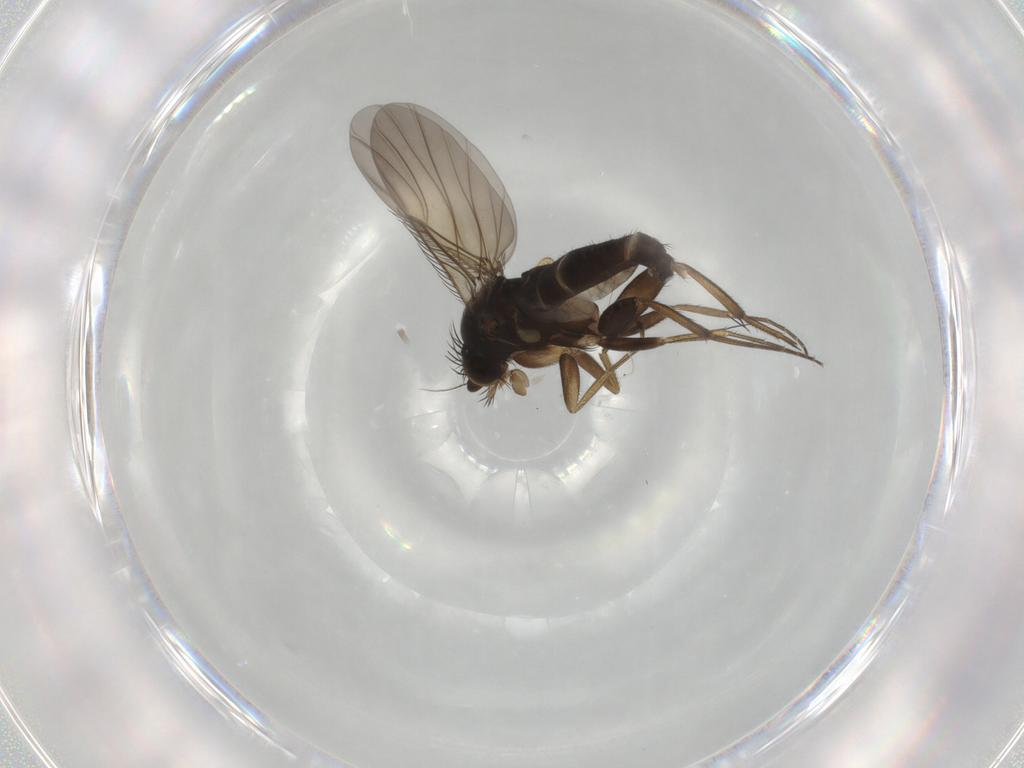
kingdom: Animalia
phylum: Arthropoda
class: Insecta
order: Diptera
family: Phoridae
